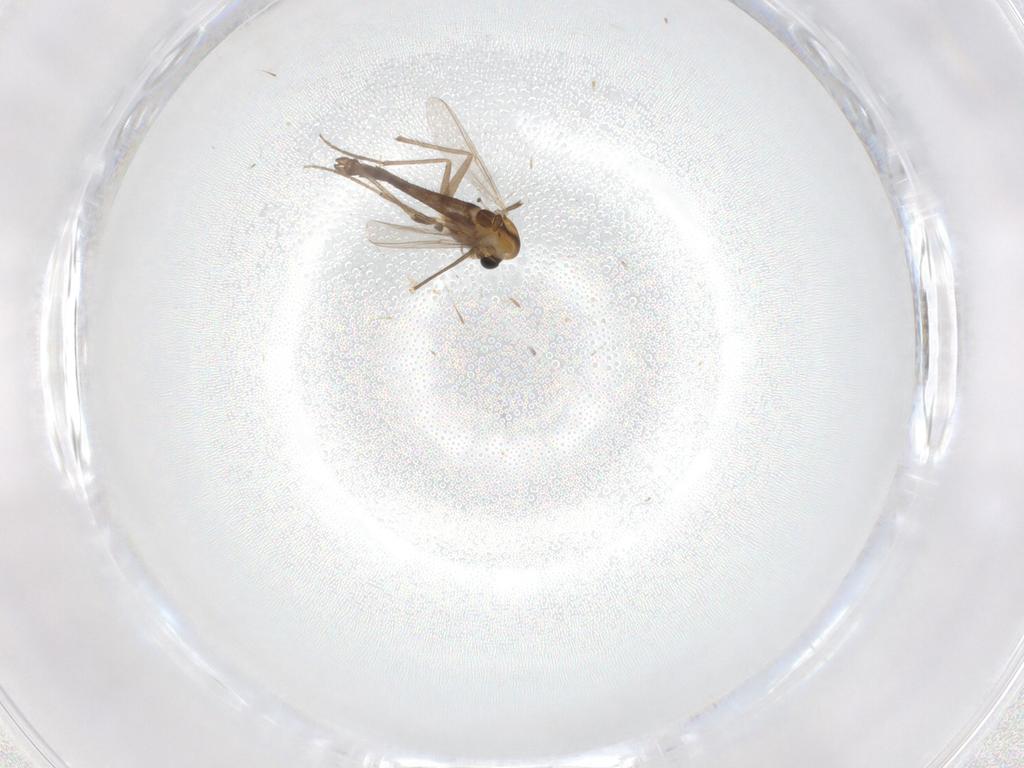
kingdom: Animalia
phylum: Arthropoda
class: Insecta
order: Diptera
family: Chironomidae
